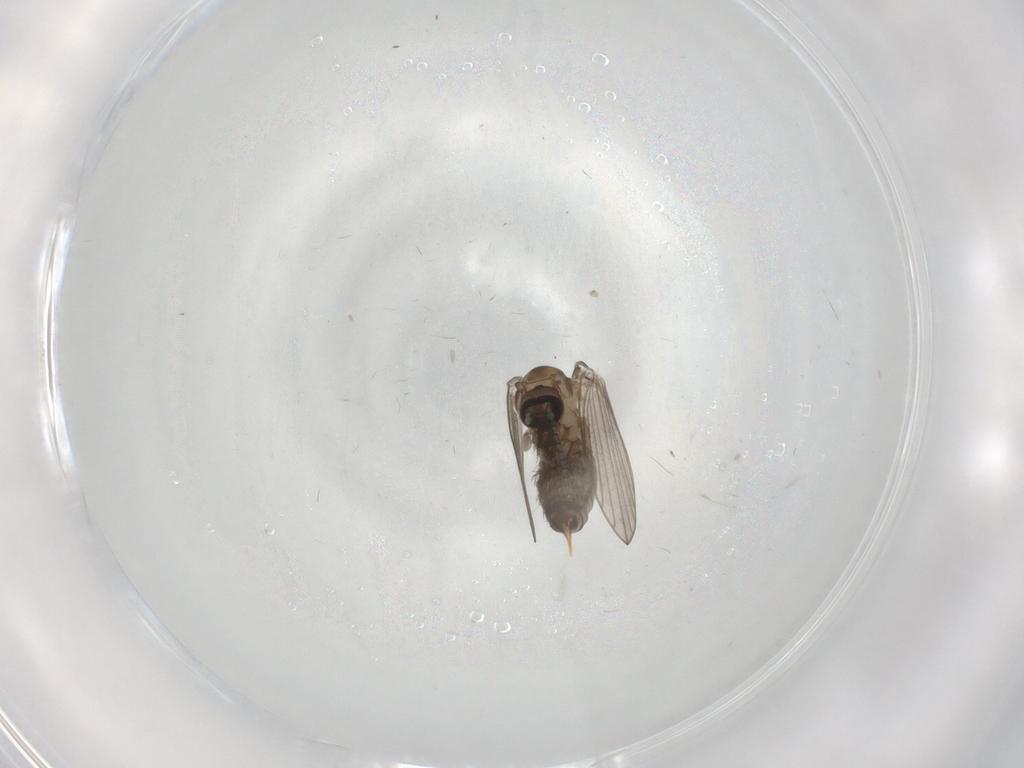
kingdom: Animalia
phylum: Arthropoda
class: Insecta
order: Diptera
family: Psychodidae
